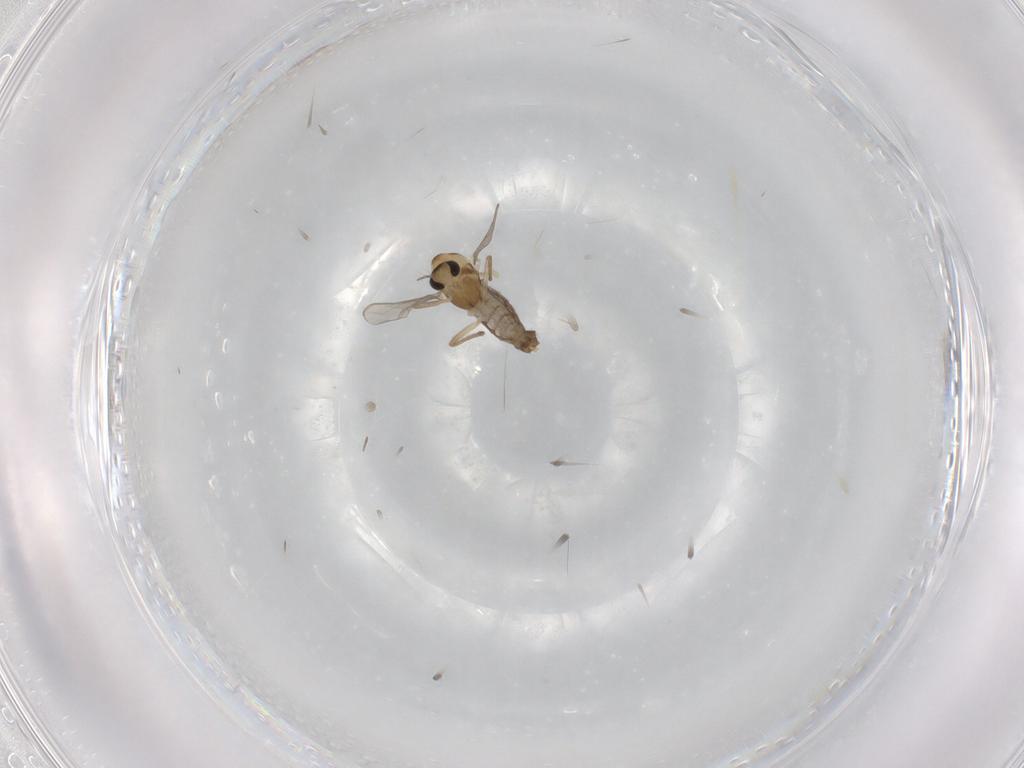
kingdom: Animalia
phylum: Arthropoda
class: Insecta
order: Diptera
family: Chironomidae
